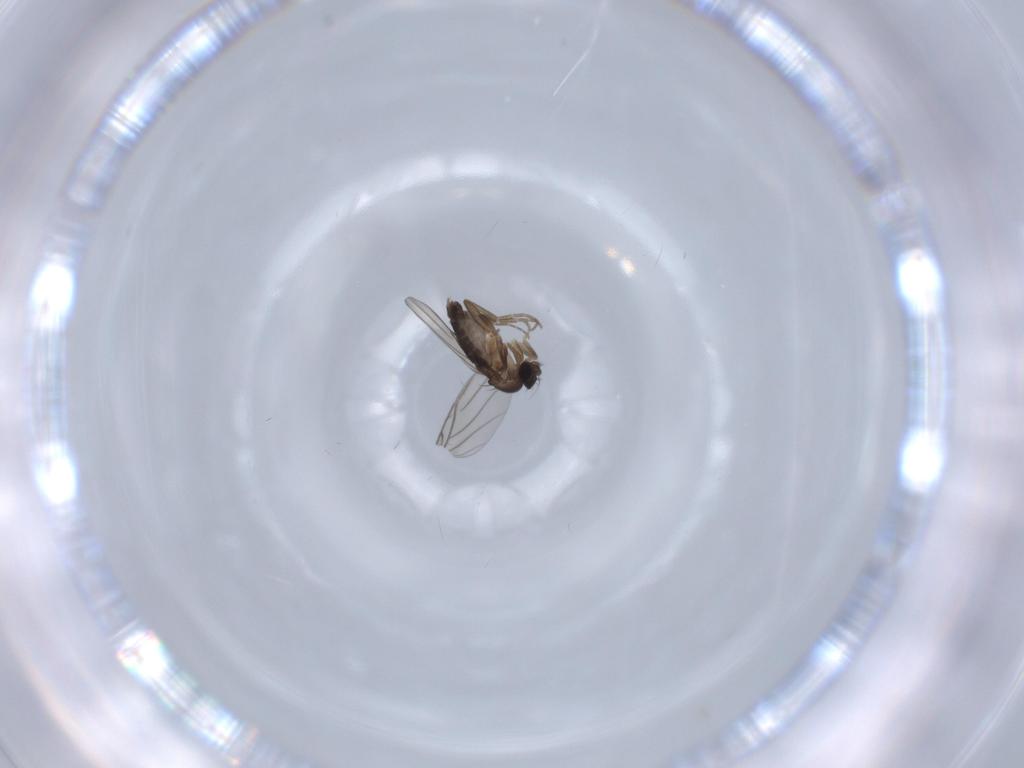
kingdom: Animalia
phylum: Arthropoda
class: Insecta
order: Diptera
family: Phoridae
